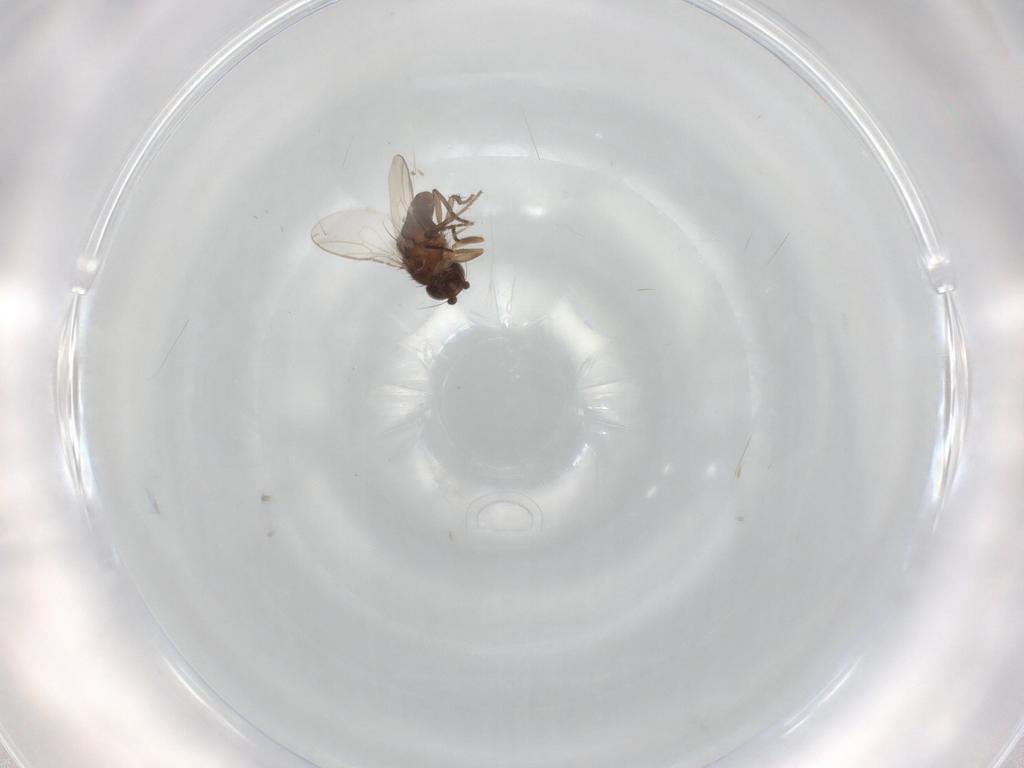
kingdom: Animalia
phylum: Arthropoda
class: Insecta
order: Diptera
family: Sphaeroceridae
